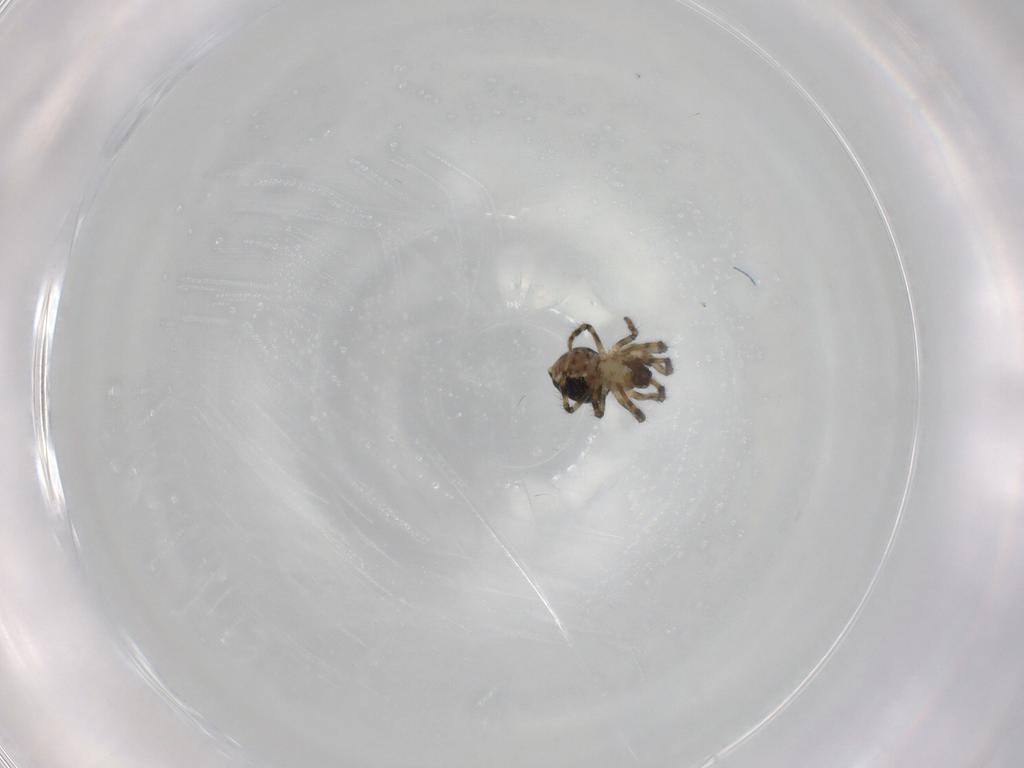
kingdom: Animalia
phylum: Arthropoda
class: Arachnida
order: Araneae
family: Mysmenidae
